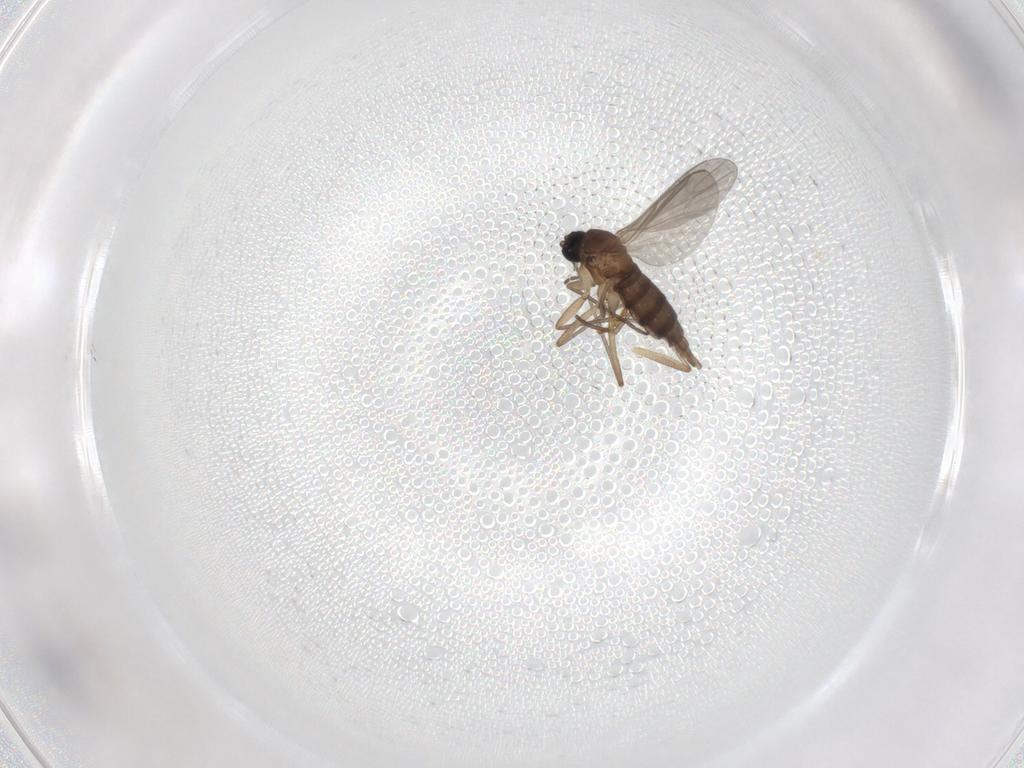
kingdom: Animalia
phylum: Arthropoda
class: Insecta
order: Diptera
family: Sciaridae
